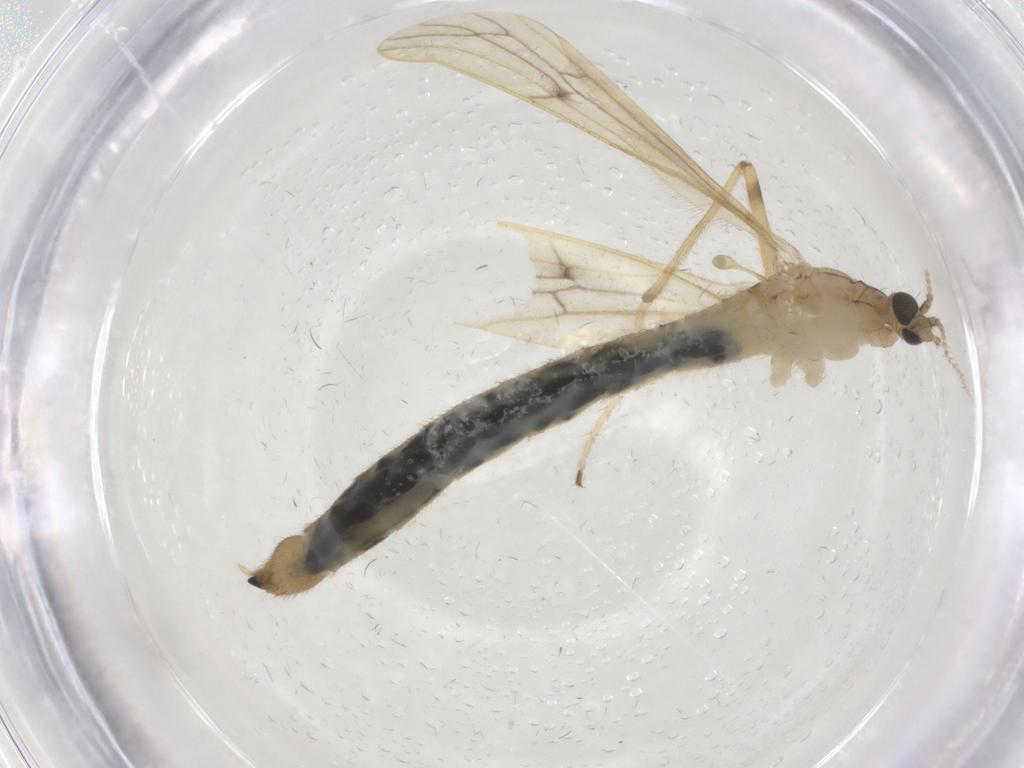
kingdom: Animalia
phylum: Arthropoda
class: Insecta
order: Diptera
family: Limoniidae
